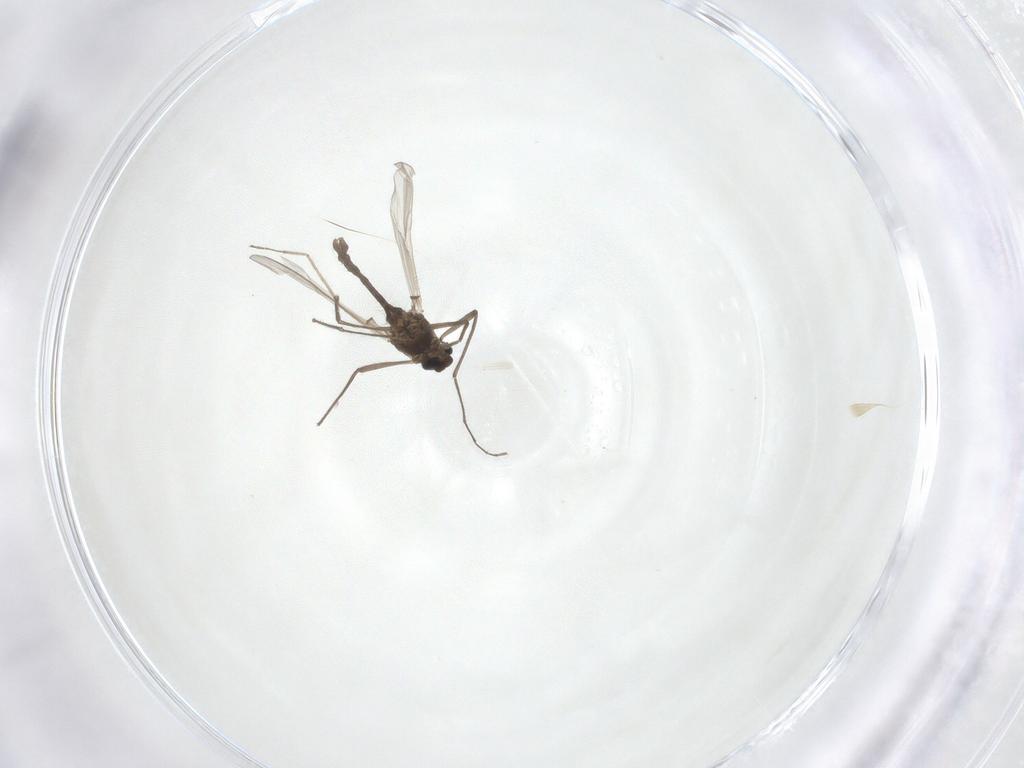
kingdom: Animalia
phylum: Arthropoda
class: Insecta
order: Diptera
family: Chironomidae
